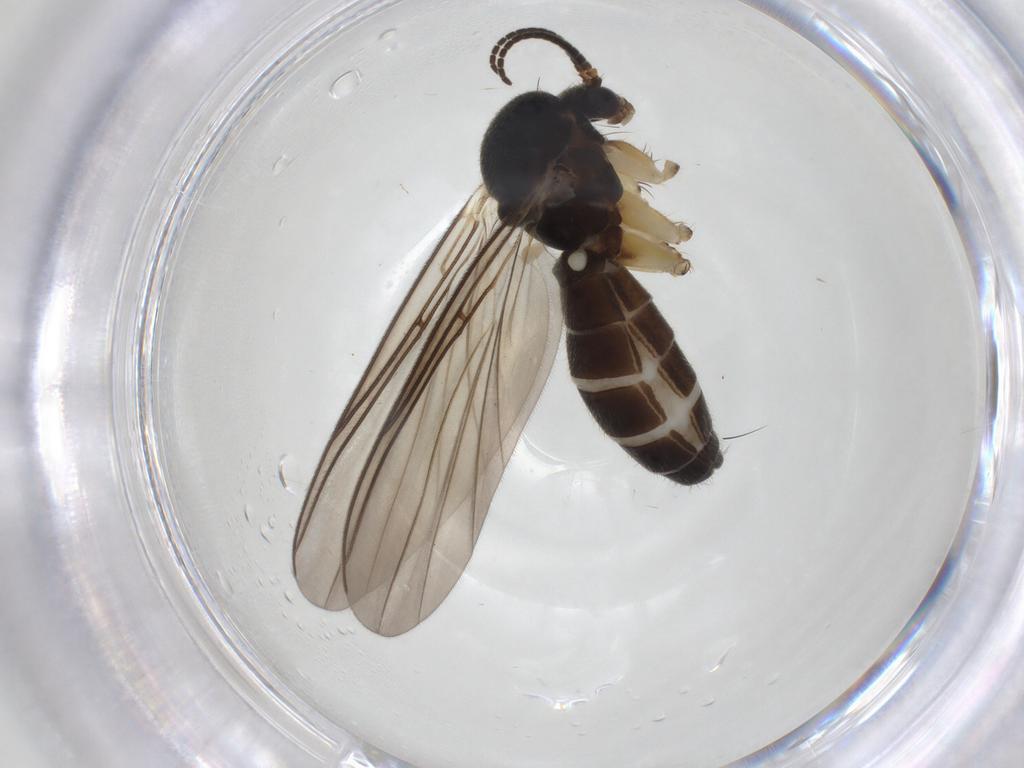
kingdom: Animalia
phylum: Arthropoda
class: Insecta
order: Diptera
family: Mycetophilidae
